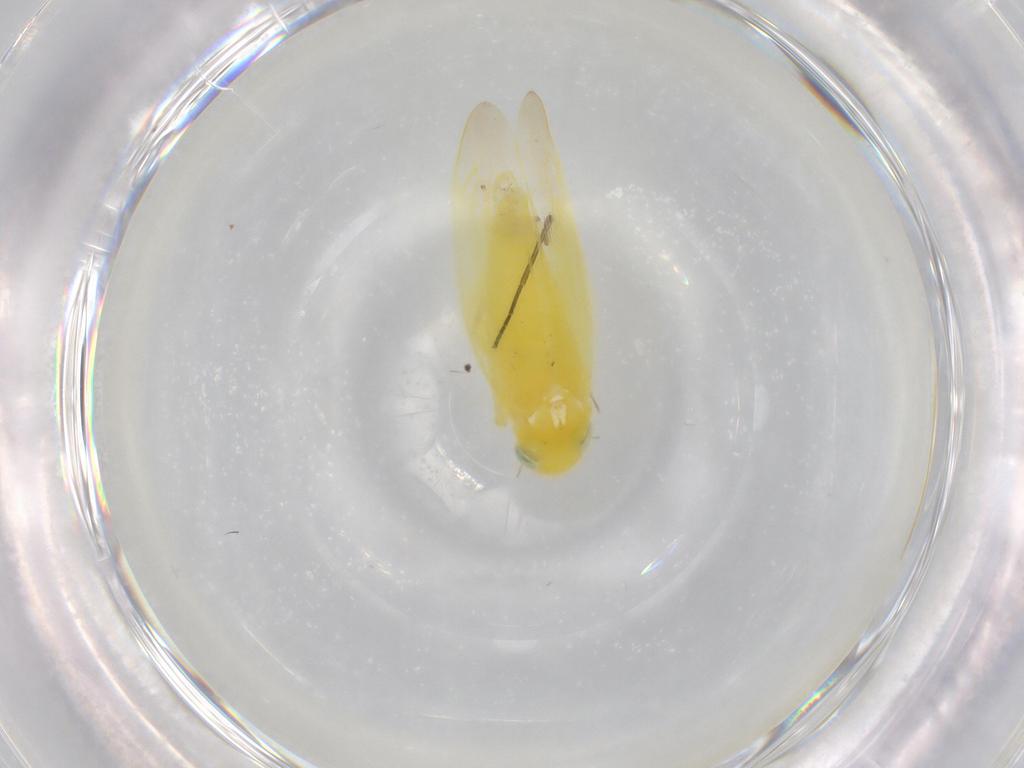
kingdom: Animalia
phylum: Arthropoda
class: Insecta
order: Hemiptera
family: Cicadellidae
